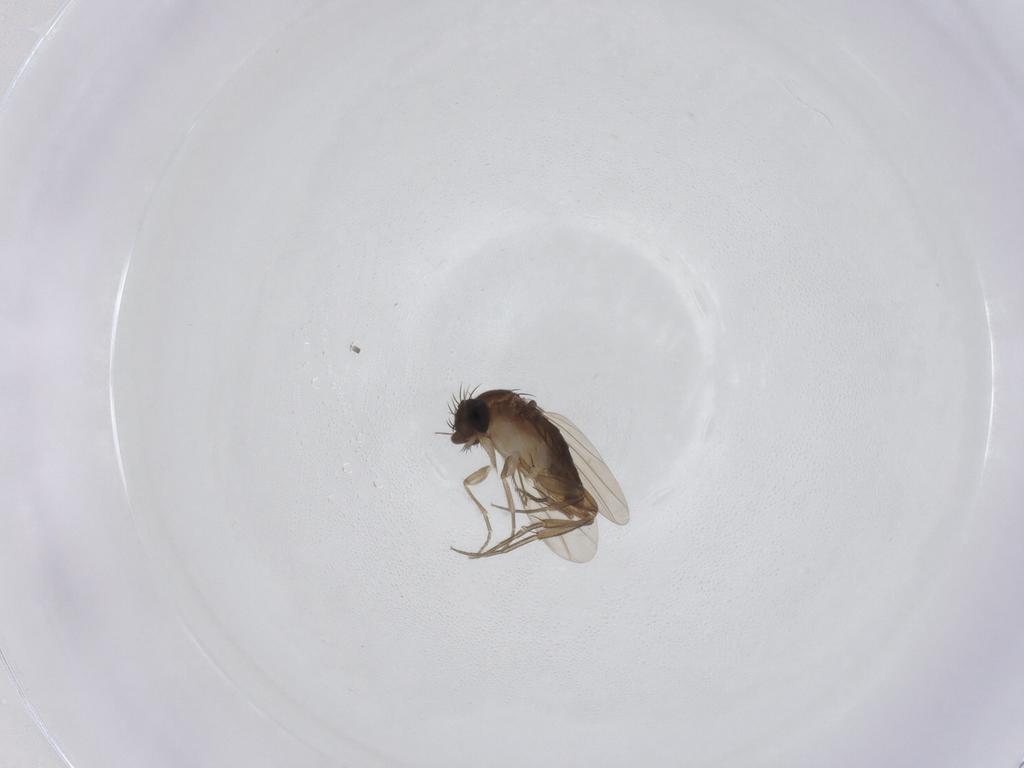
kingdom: Animalia
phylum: Arthropoda
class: Insecta
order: Diptera
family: Phoridae
